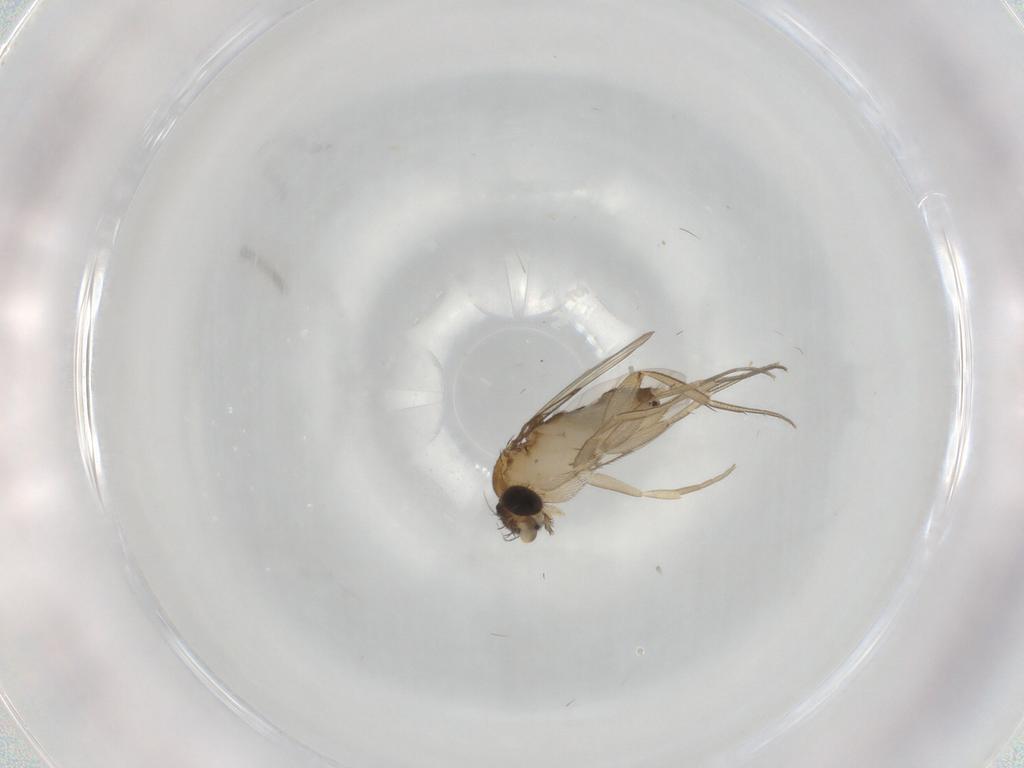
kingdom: Animalia
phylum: Arthropoda
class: Insecta
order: Diptera
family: Phoridae
